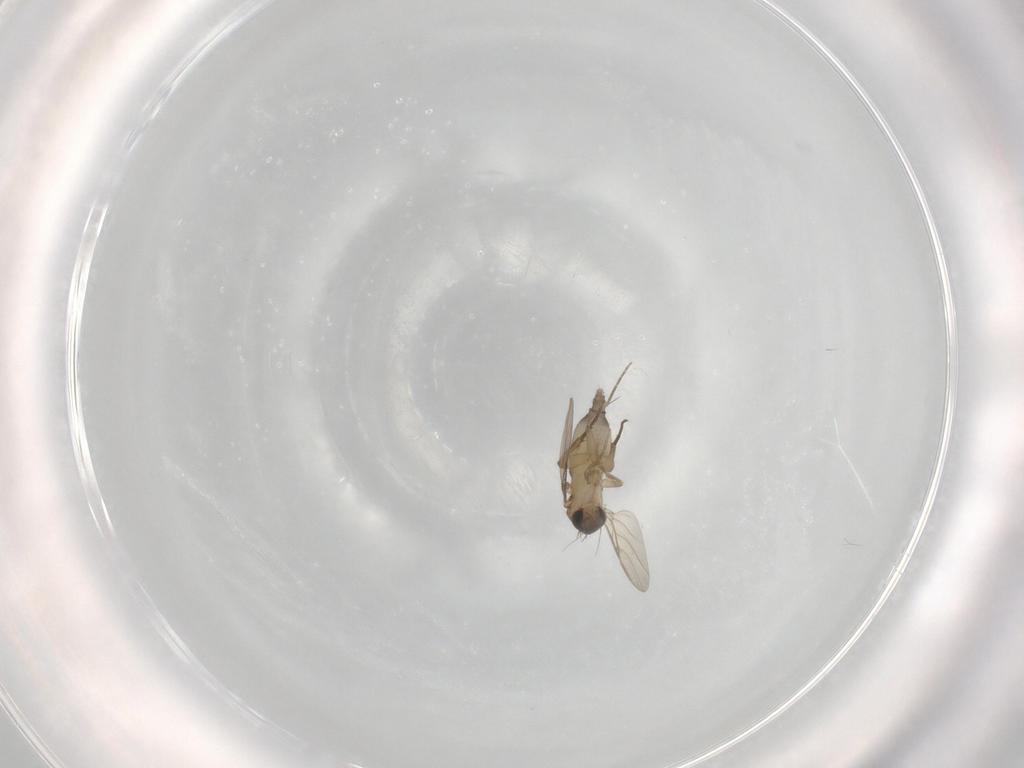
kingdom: Animalia
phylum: Arthropoda
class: Insecta
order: Diptera
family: Phoridae
